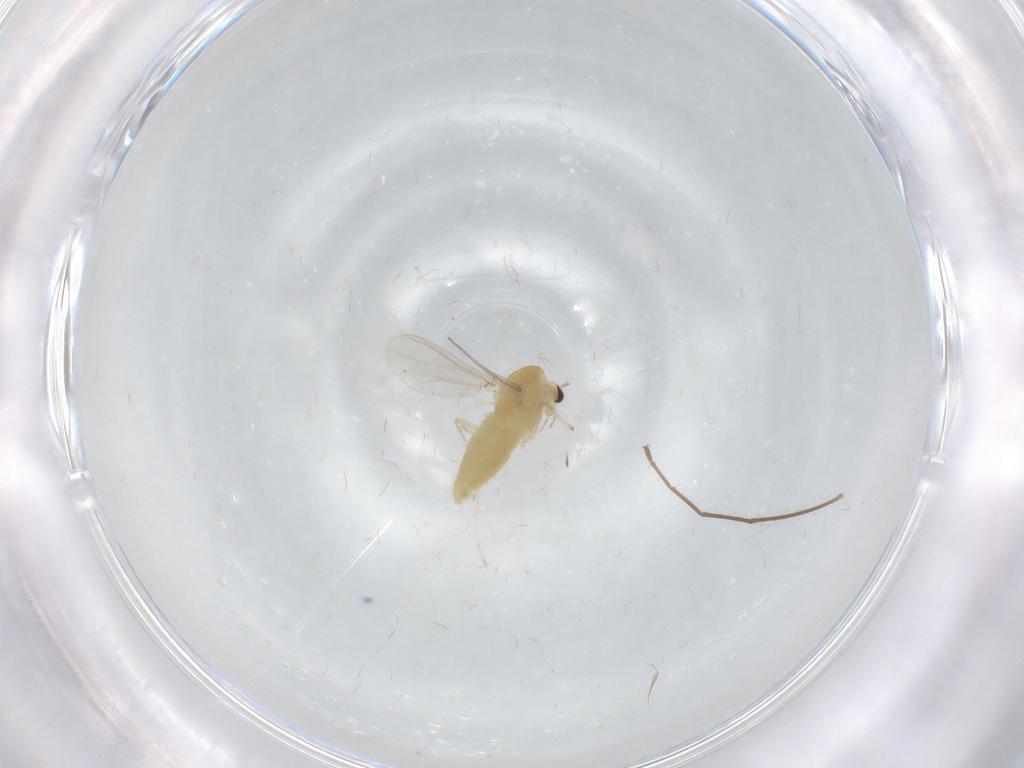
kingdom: Animalia
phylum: Arthropoda
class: Insecta
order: Diptera
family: Chironomidae
